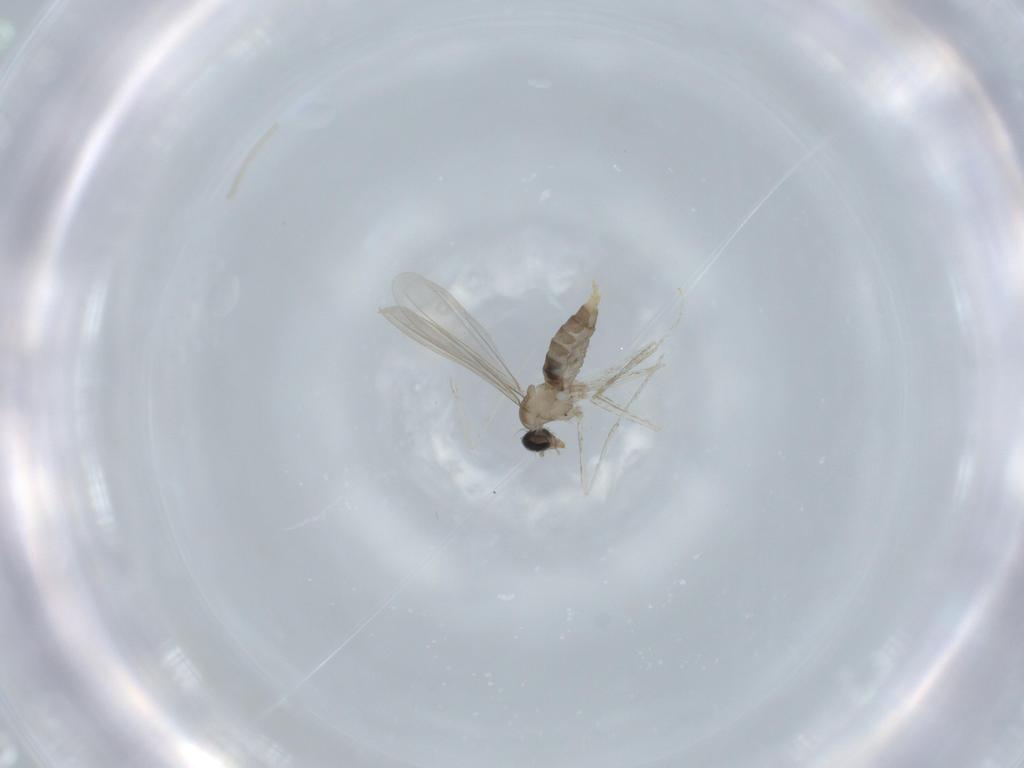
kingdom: Animalia
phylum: Arthropoda
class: Insecta
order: Diptera
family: Cecidomyiidae
